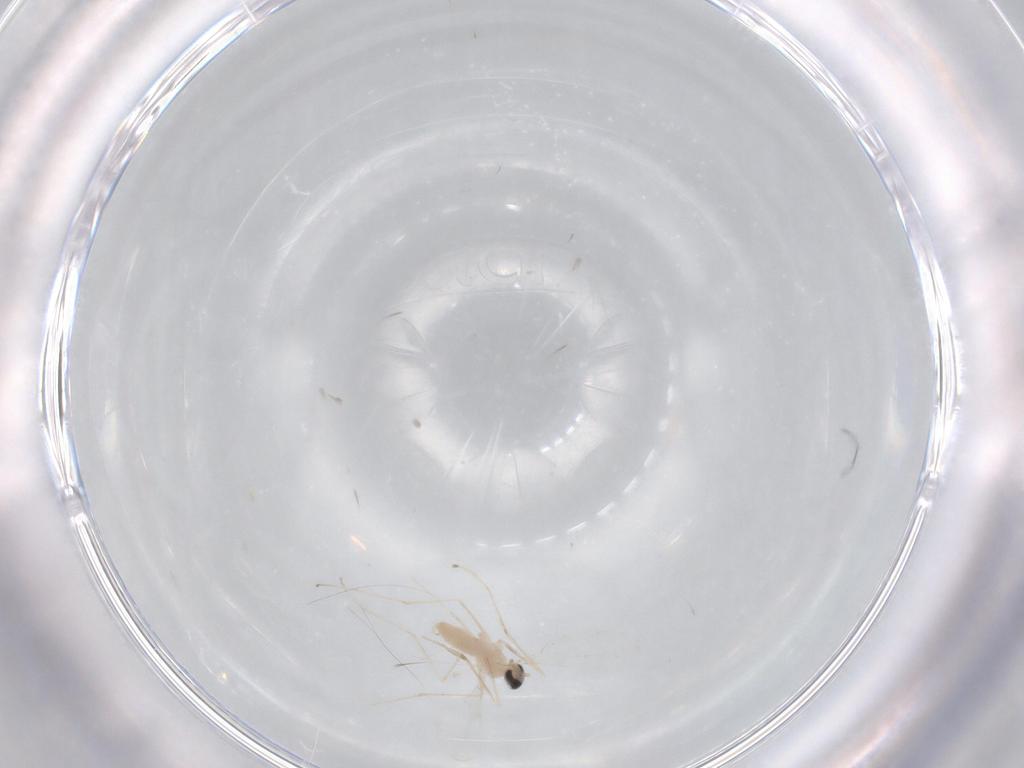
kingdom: Animalia
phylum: Arthropoda
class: Insecta
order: Diptera
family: Cecidomyiidae
